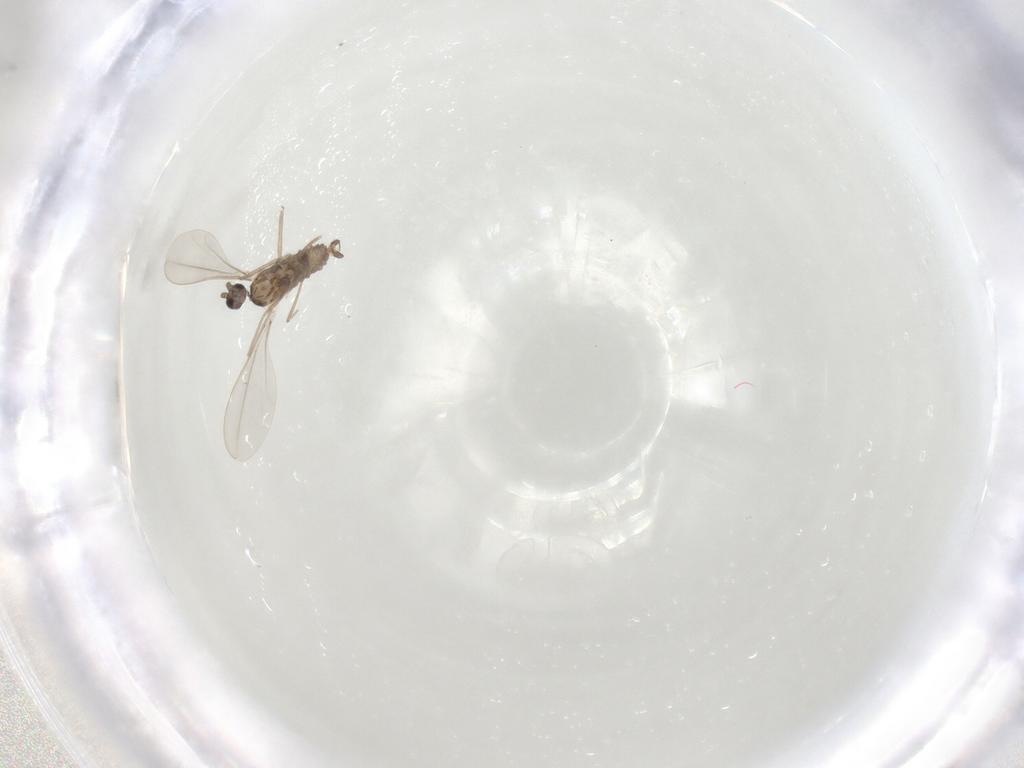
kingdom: Animalia
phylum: Arthropoda
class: Insecta
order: Diptera
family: Cecidomyiidae
